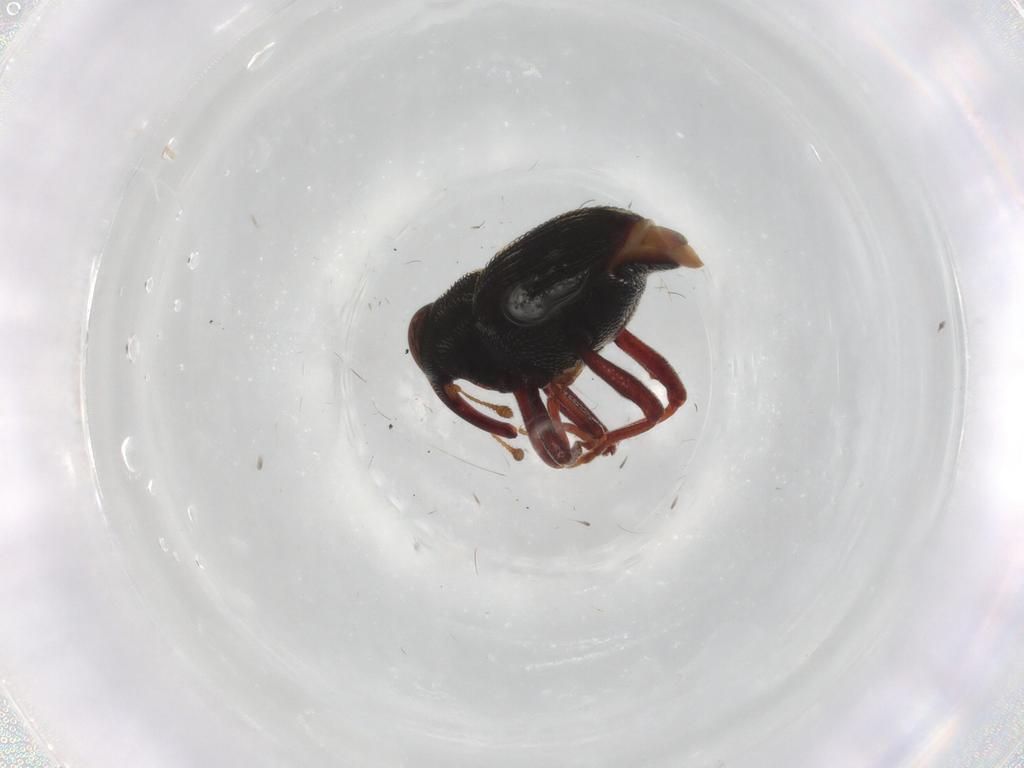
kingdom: Animalia
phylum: Arthropoda
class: Insecta
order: Coleoptera
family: Curculionidae
